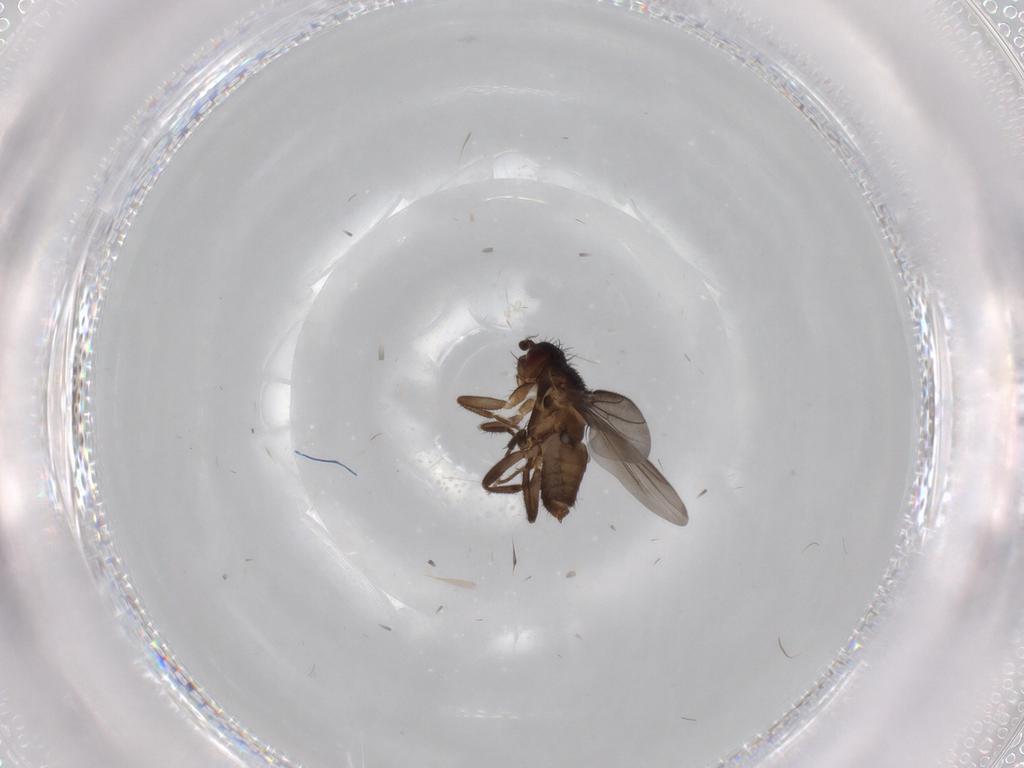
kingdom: Animalia
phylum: Arthropoda
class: Insecta
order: Diptera
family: Sphaeroceridae
